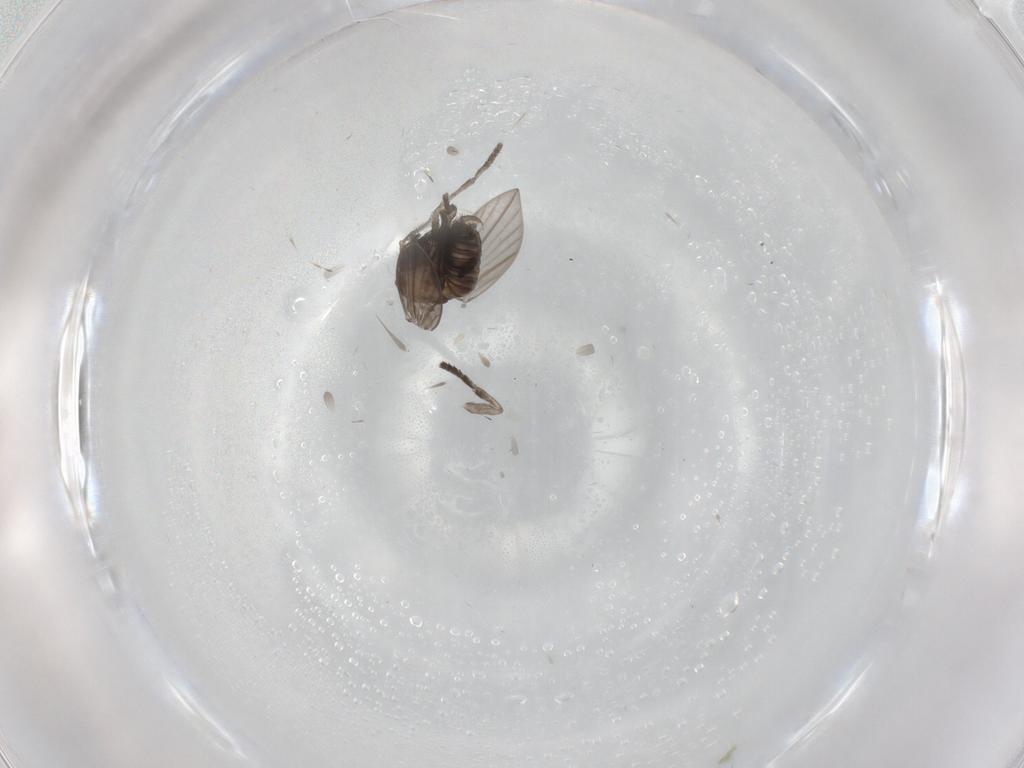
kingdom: Animalia
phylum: Arthropoda
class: Insecta
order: Diptera
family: Psychodidae
